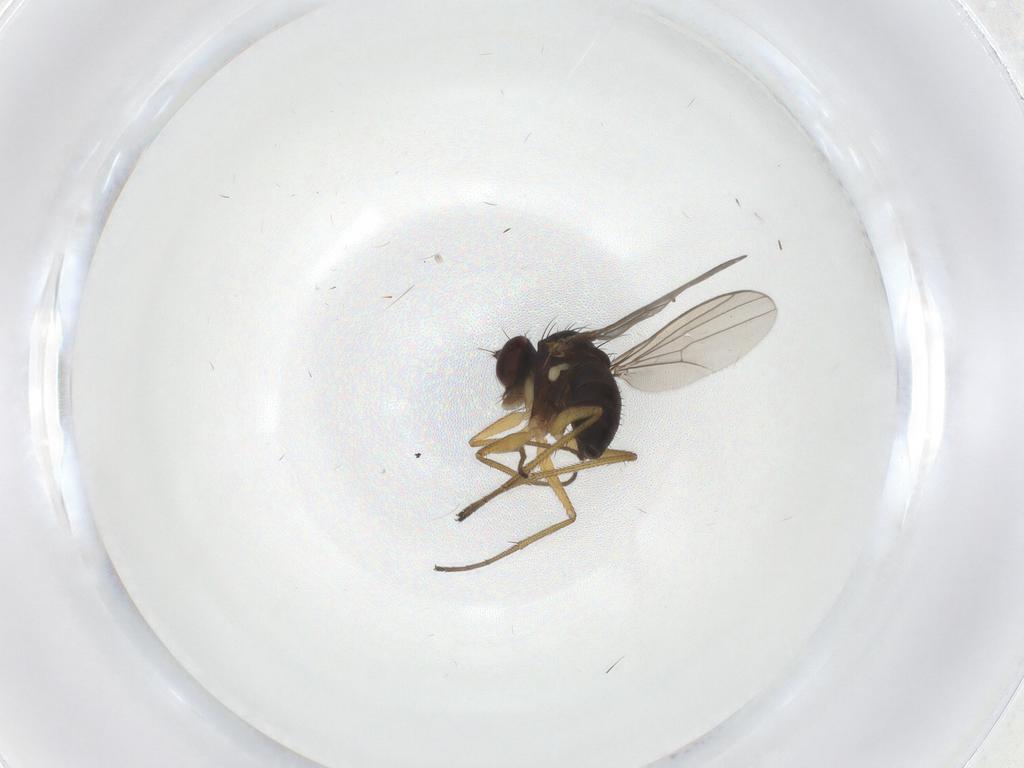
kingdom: Animalia
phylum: Arthropoda
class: Insecta
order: Diptera
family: Dolichopodidae
